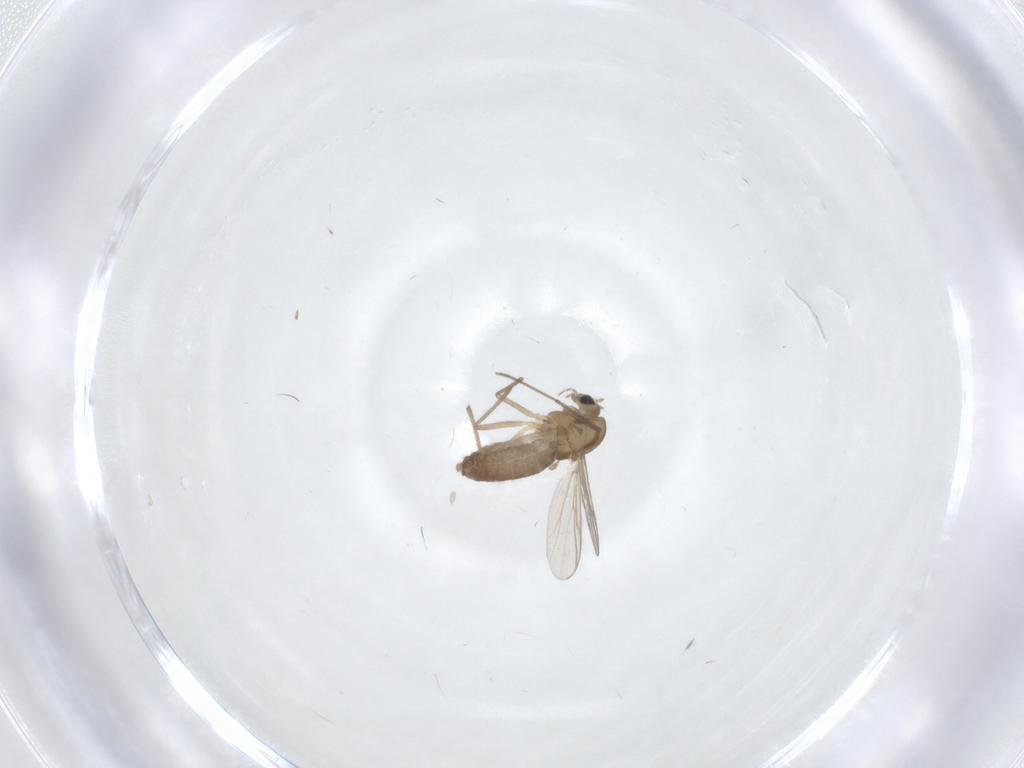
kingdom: Animalia
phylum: Arthropoda
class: Insecta
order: Diptera
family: Chironomidae
